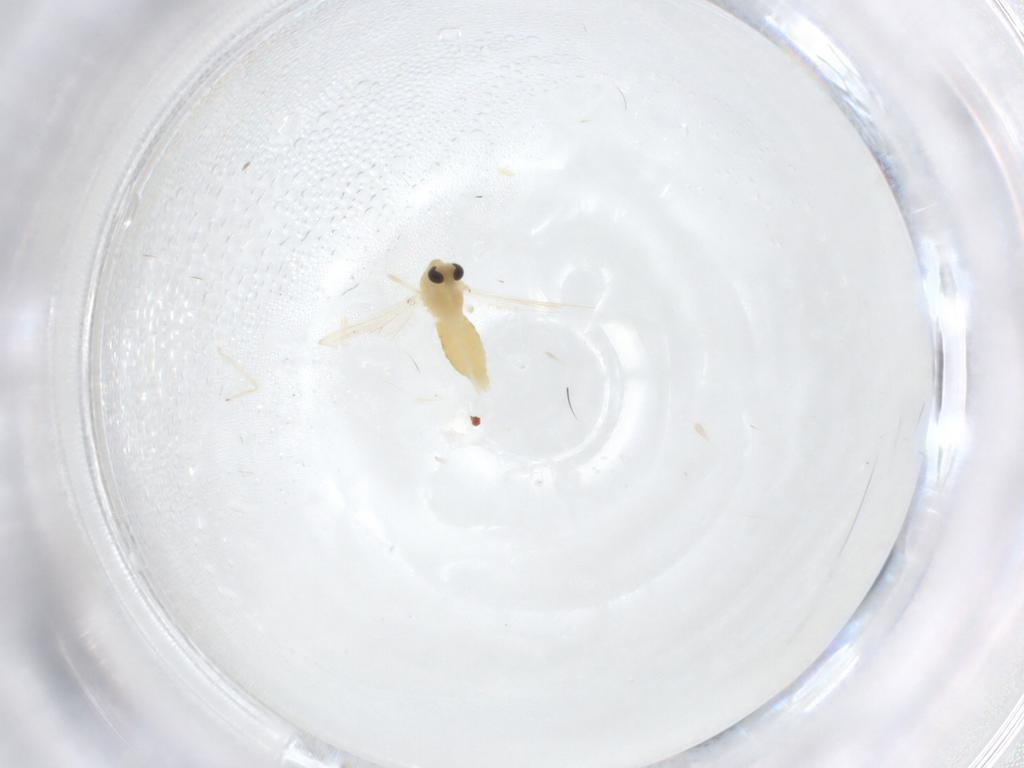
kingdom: Animalia
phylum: Arthropoda
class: Insecta
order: Diptera
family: Chironomidae
